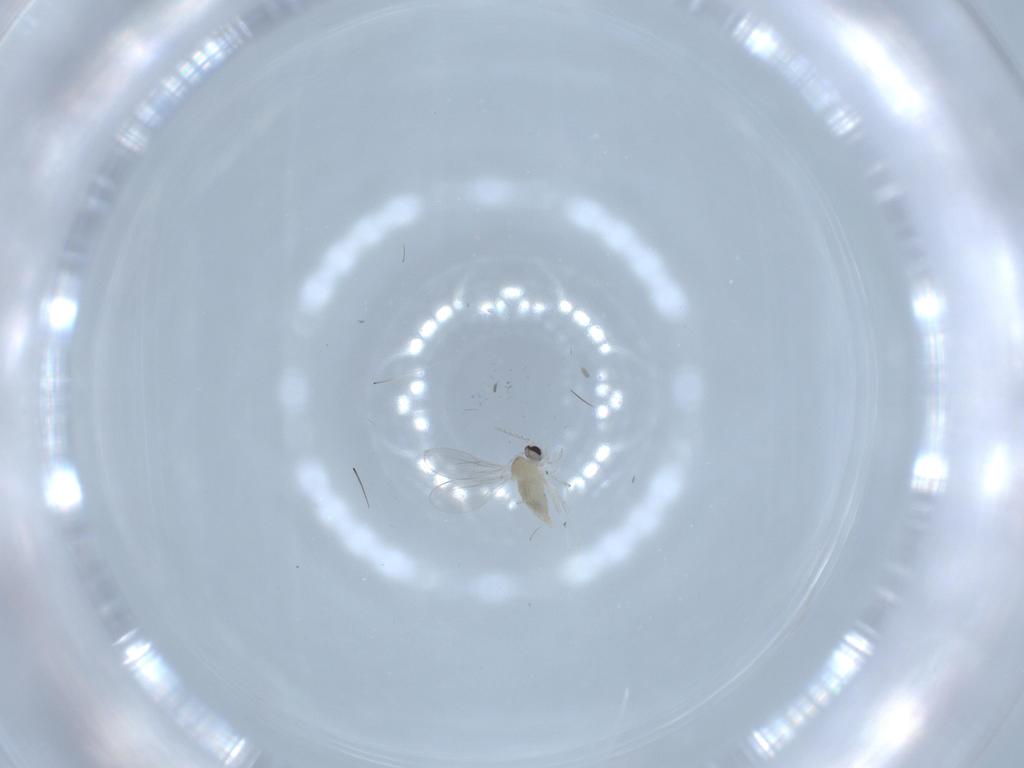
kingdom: Animalia
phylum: Arthropoda
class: Insecta
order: Diptera
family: Cecidomyiidae
